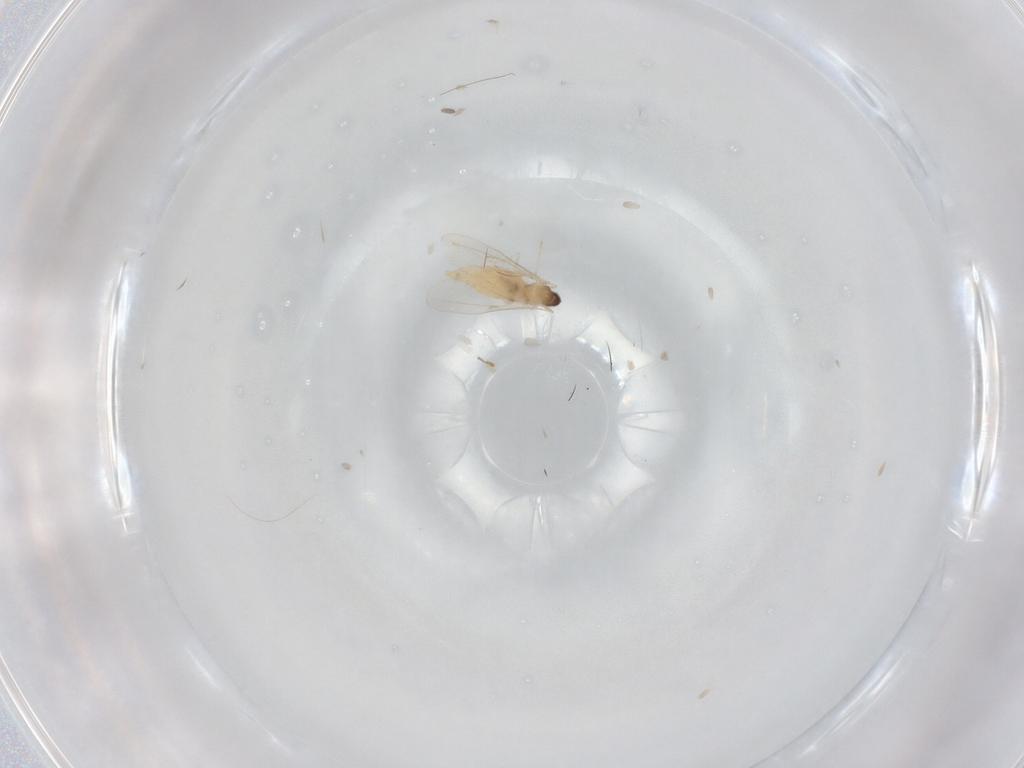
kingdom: Animalia
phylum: Arthropoda
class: Insecta
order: Diptera
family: Cecidomyiidae
